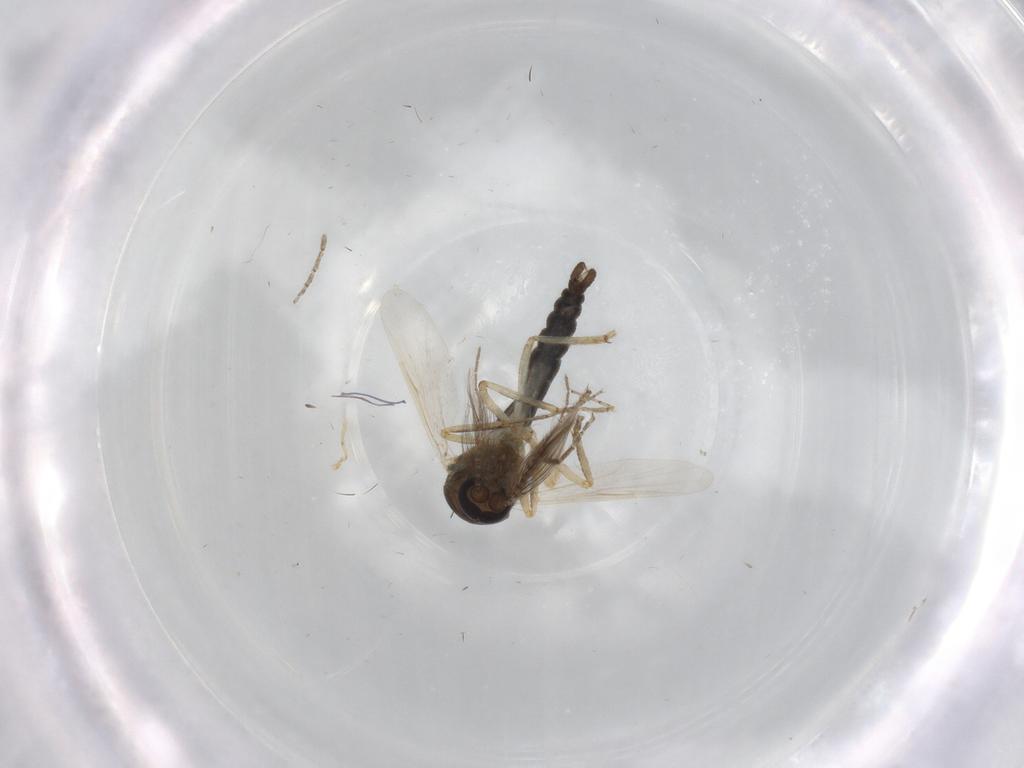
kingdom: Animalia
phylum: Arthropoda
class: Insecta
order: Diptera
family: Ceratopogonidae
